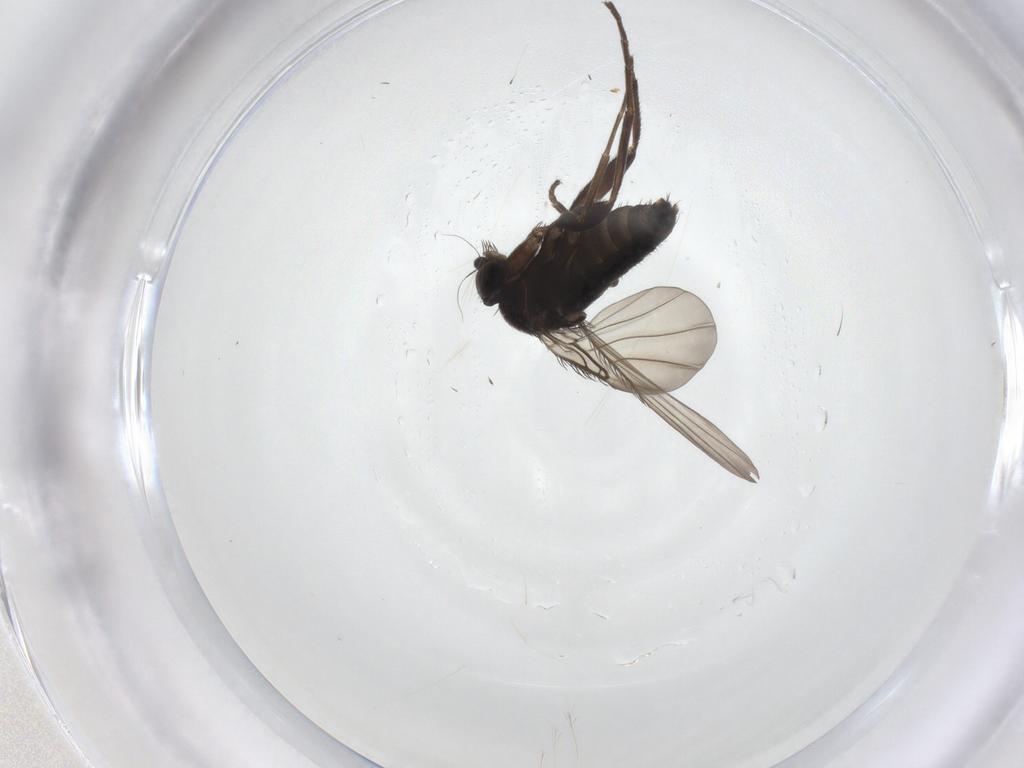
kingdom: Animalia
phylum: Arthropoda
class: Insecta
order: Diptera
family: Phoridae
